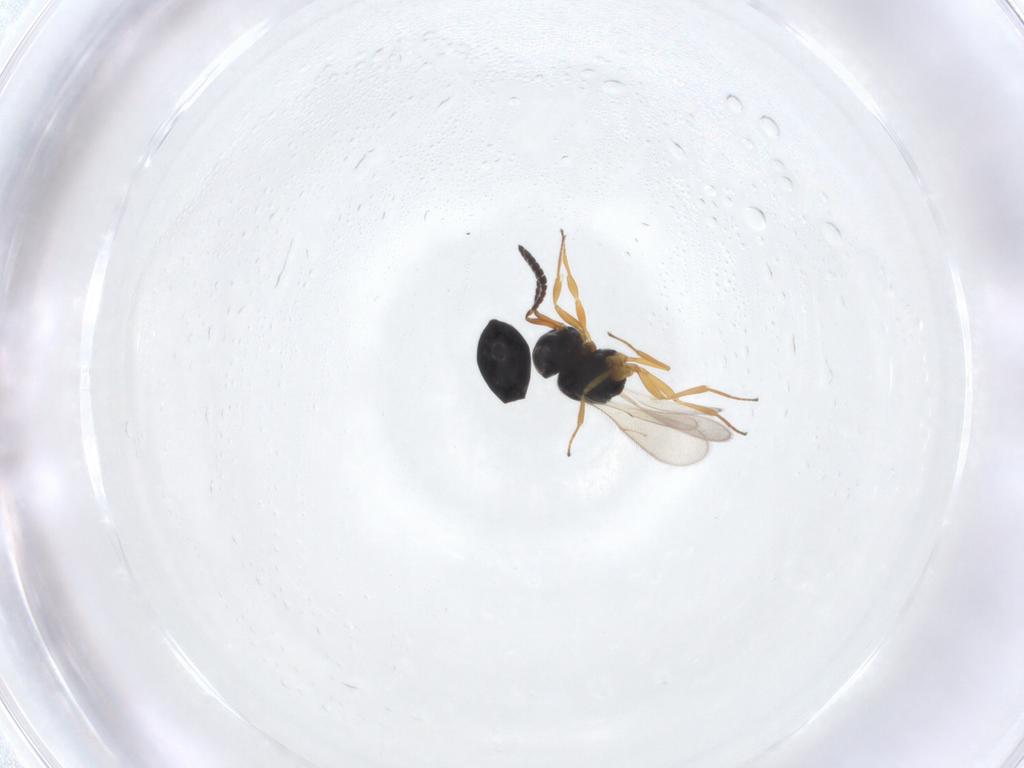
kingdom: Animalia
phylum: Arthropoda
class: Insecta
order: Hymenoptera
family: Scelionidae
